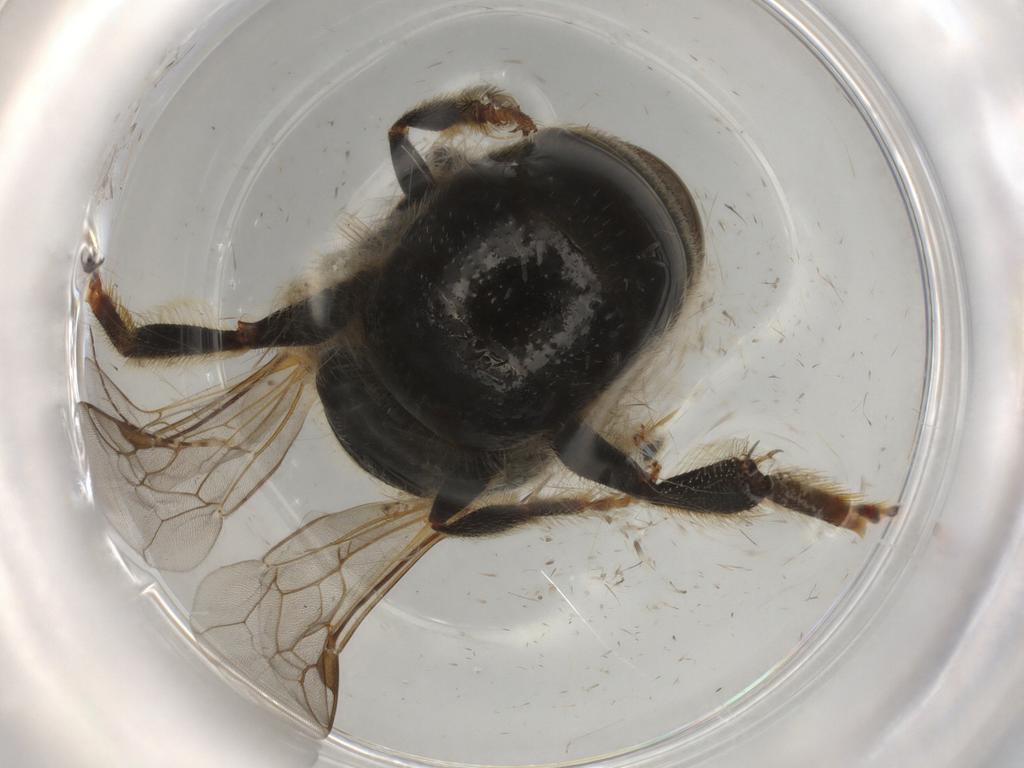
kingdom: Animalia
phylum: Arthropoda
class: Insecta
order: Hymenoptera
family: Halictidae
